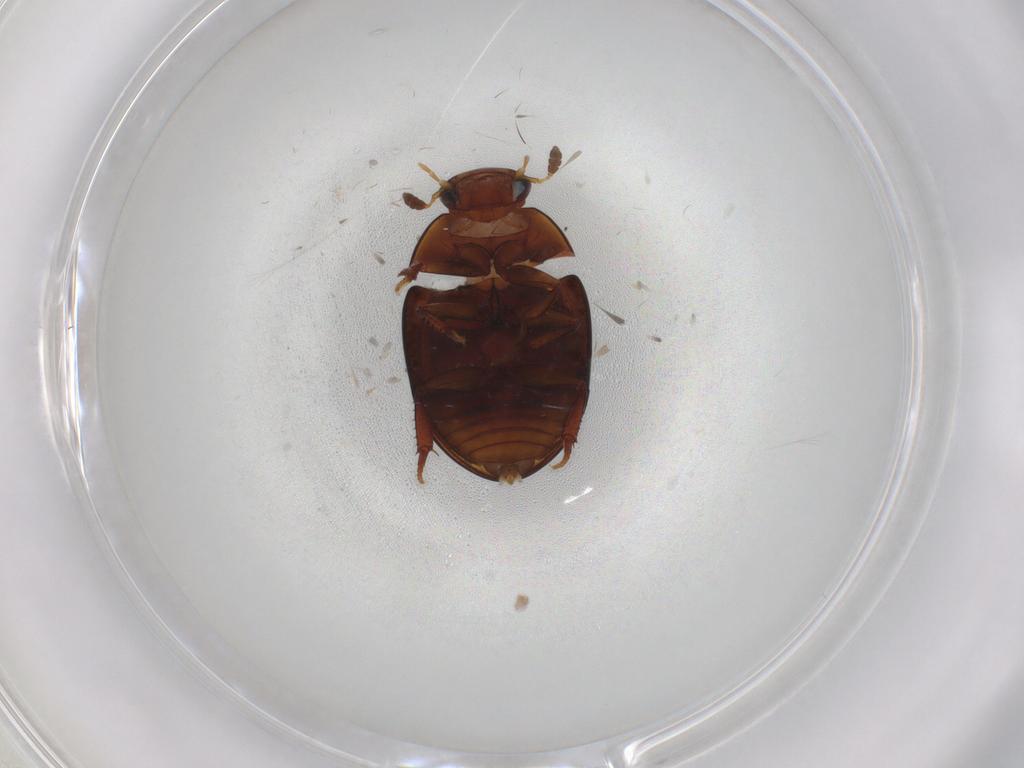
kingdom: Animalia
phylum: Arthropoda
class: Insecta
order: Coleoptera
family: Hydrophilidae
